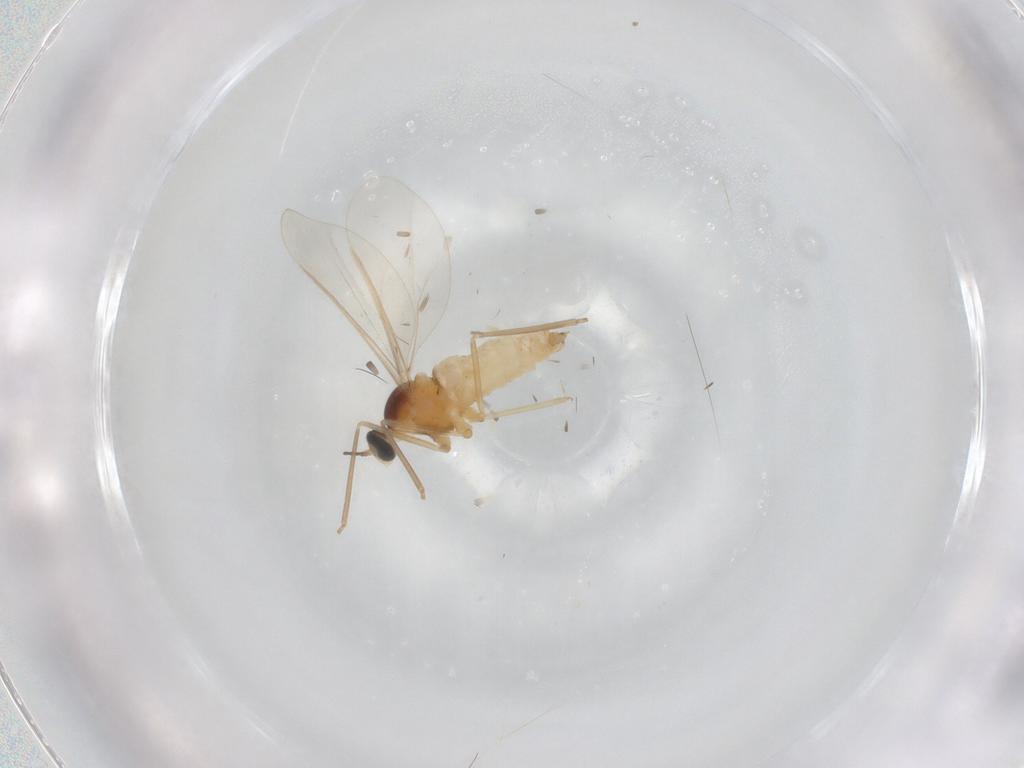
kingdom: Animalia
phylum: Arthropoda
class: Insecta
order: Diptera
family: Cecidomyiidae
